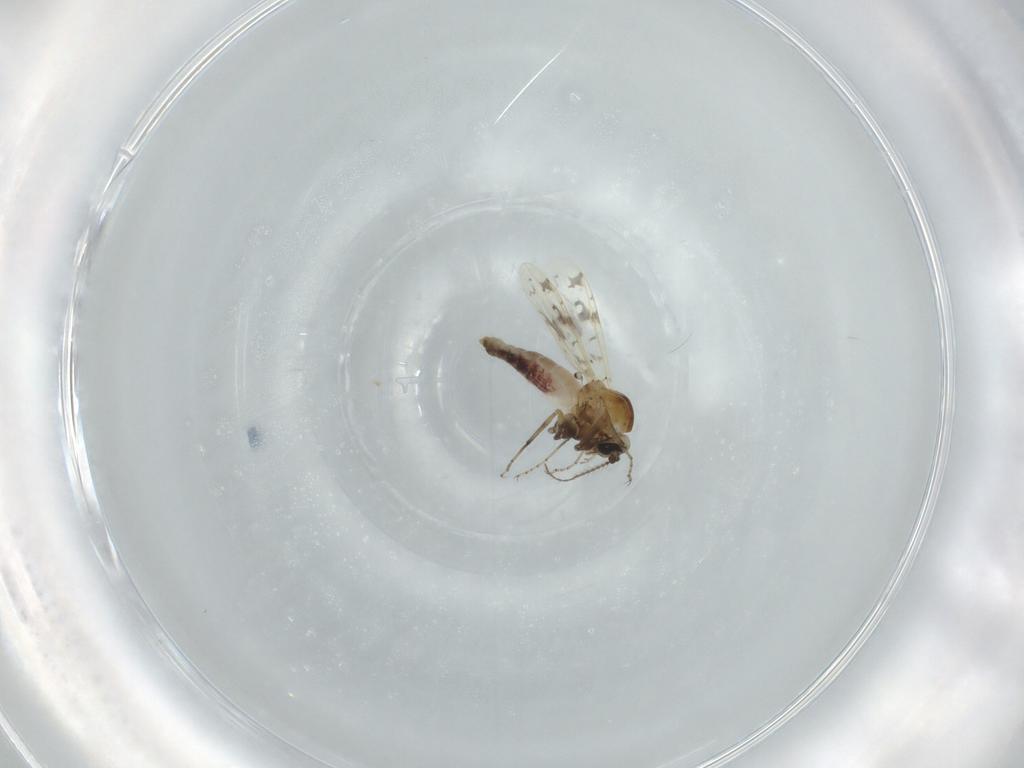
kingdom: Animalia
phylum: Arthropoda
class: Insecta
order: Diptera
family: Ceratopogonidae
